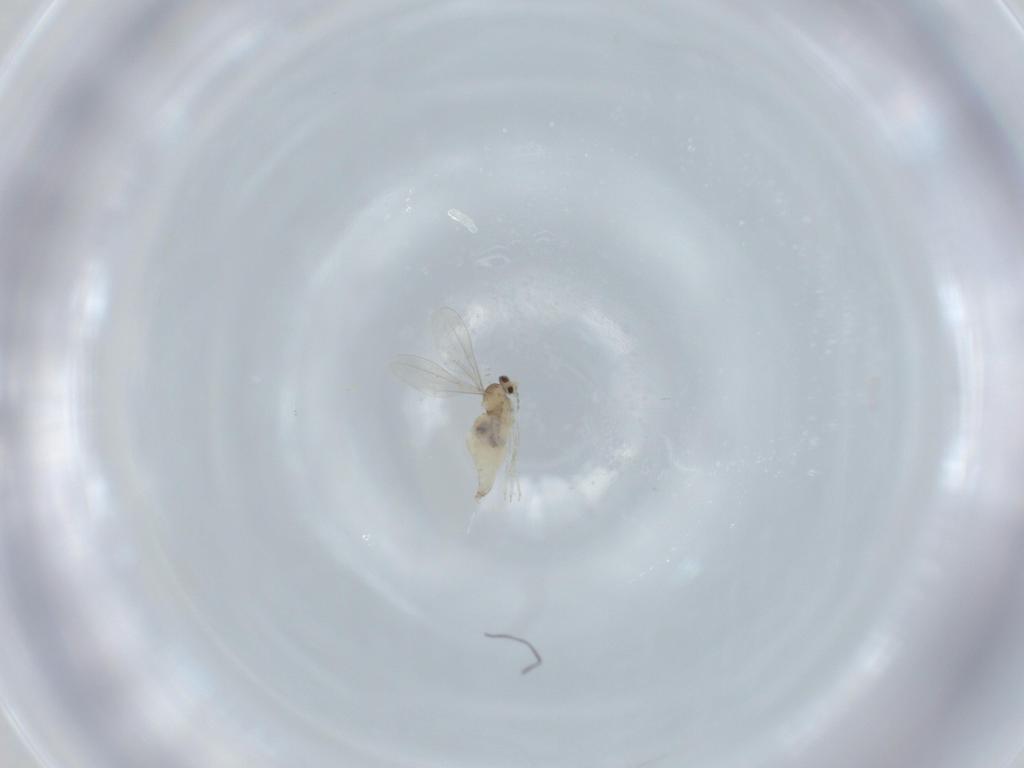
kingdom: Animalia
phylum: Arthropoda
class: Insecta
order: Diptera
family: Cecidomyiidae
